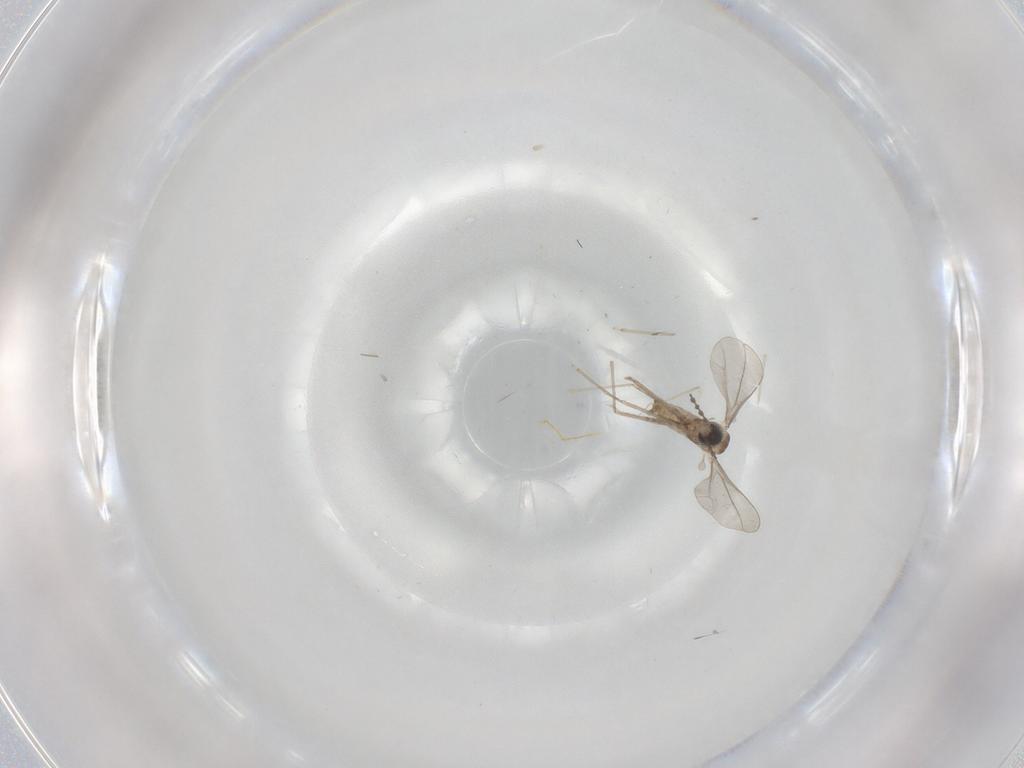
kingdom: Animalia
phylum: Arthropoda
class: Insecta
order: Diptera
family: Cecidomyiidae
